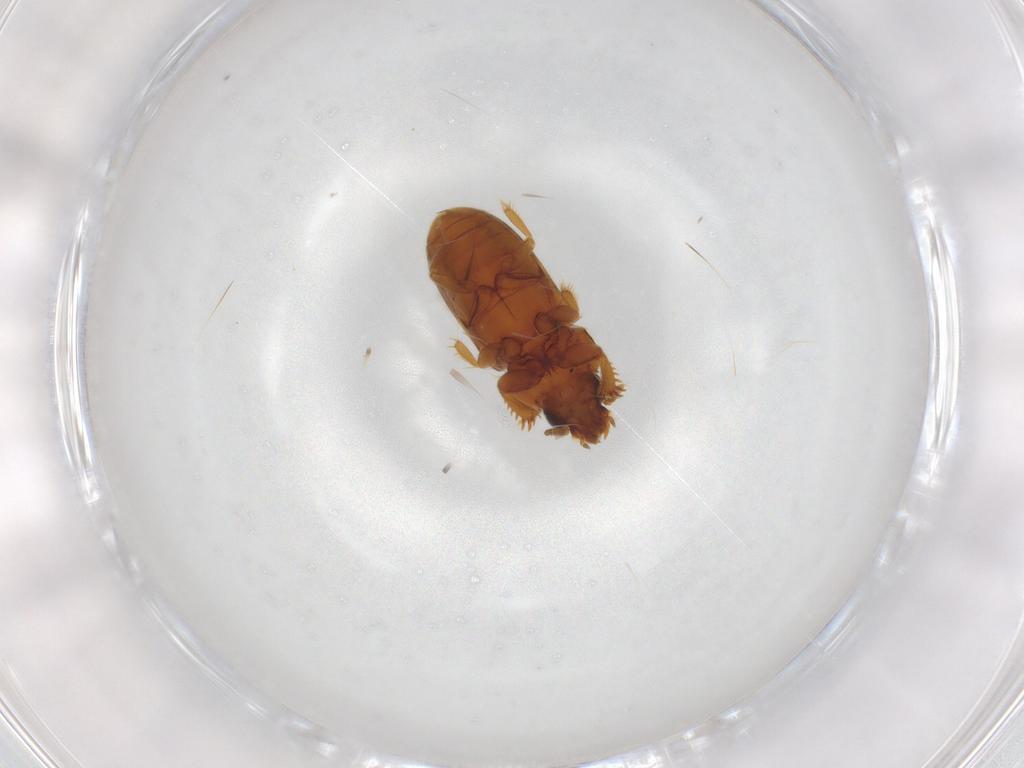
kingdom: Animalia
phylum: Arthropoda
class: Insecta
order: Coleoptera
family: Heteroceridae
